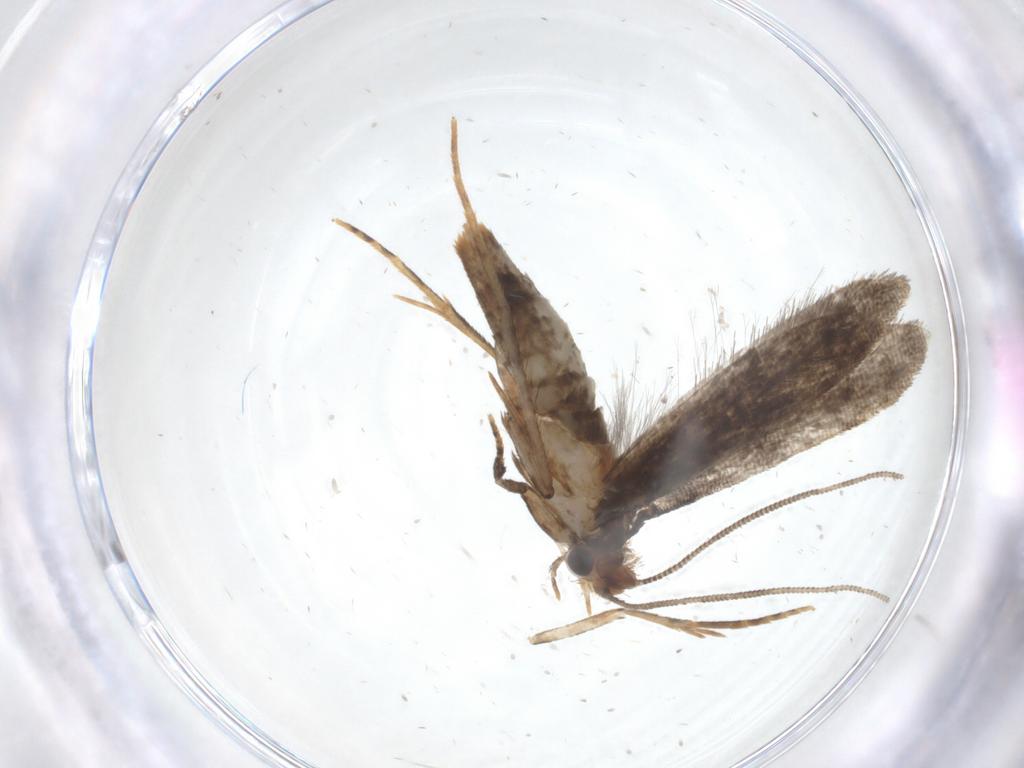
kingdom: Animalia
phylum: Arthropoda
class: Insecta
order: Lepidoptera
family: Tineidae
